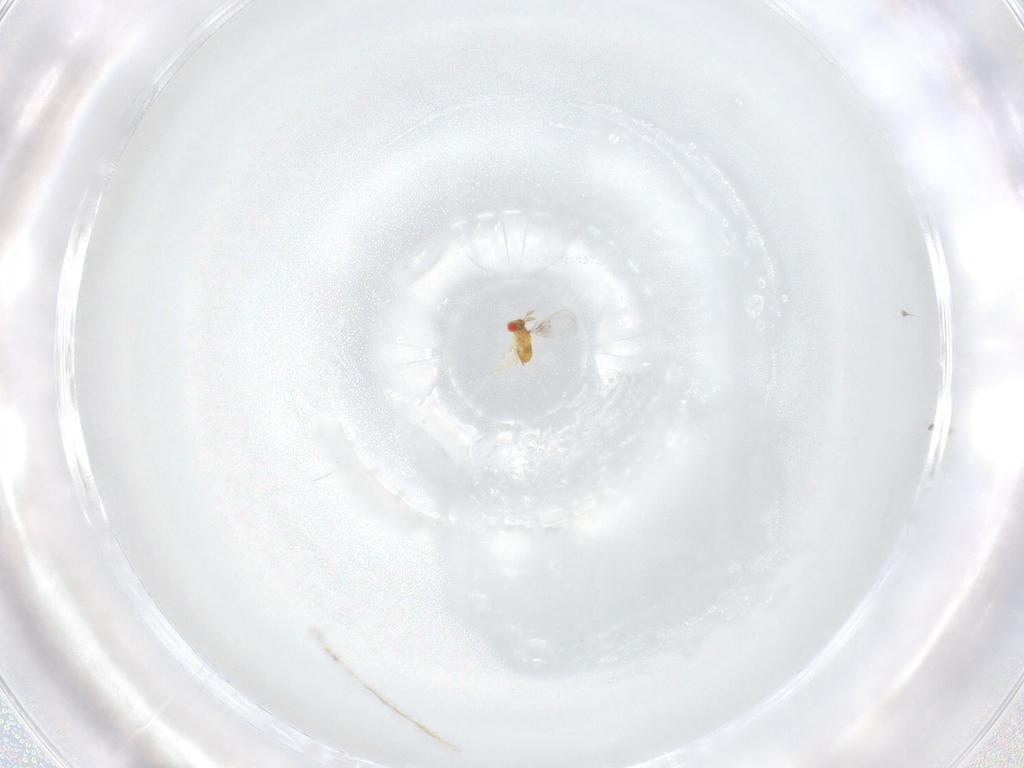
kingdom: Animalia
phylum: Arthropoda
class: Insecta
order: Hymenoptera
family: Trichogrammatidae
